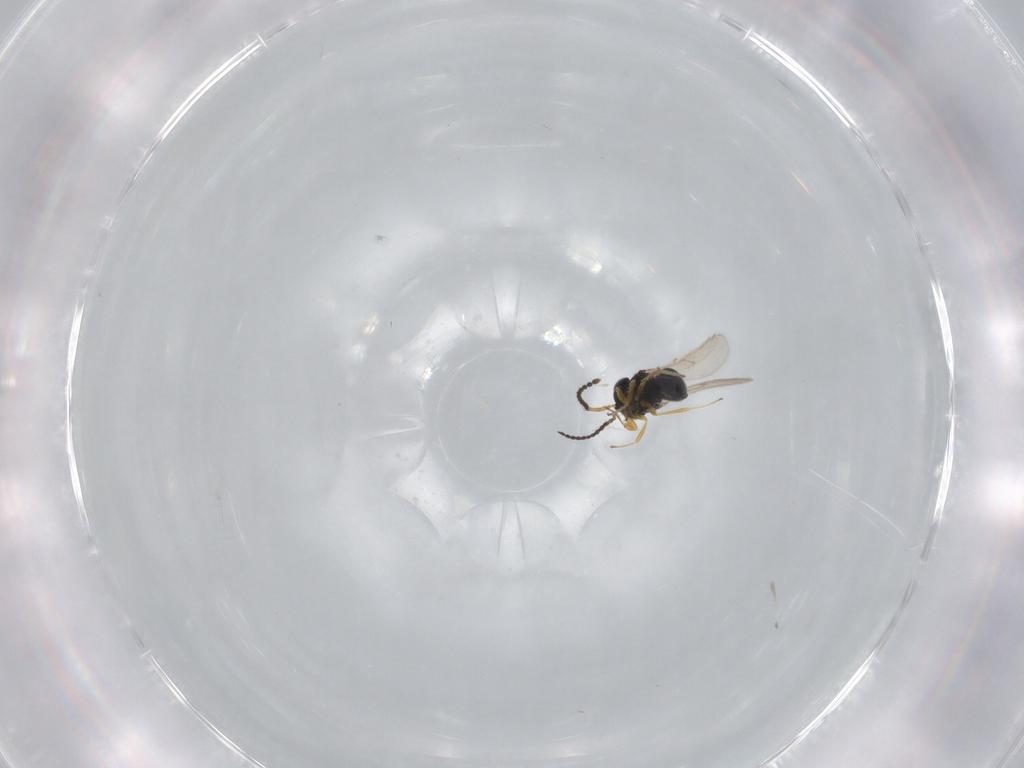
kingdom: Animalia
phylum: Arthropoda
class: Insecta
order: Hymenoptera
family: Scelionidae
